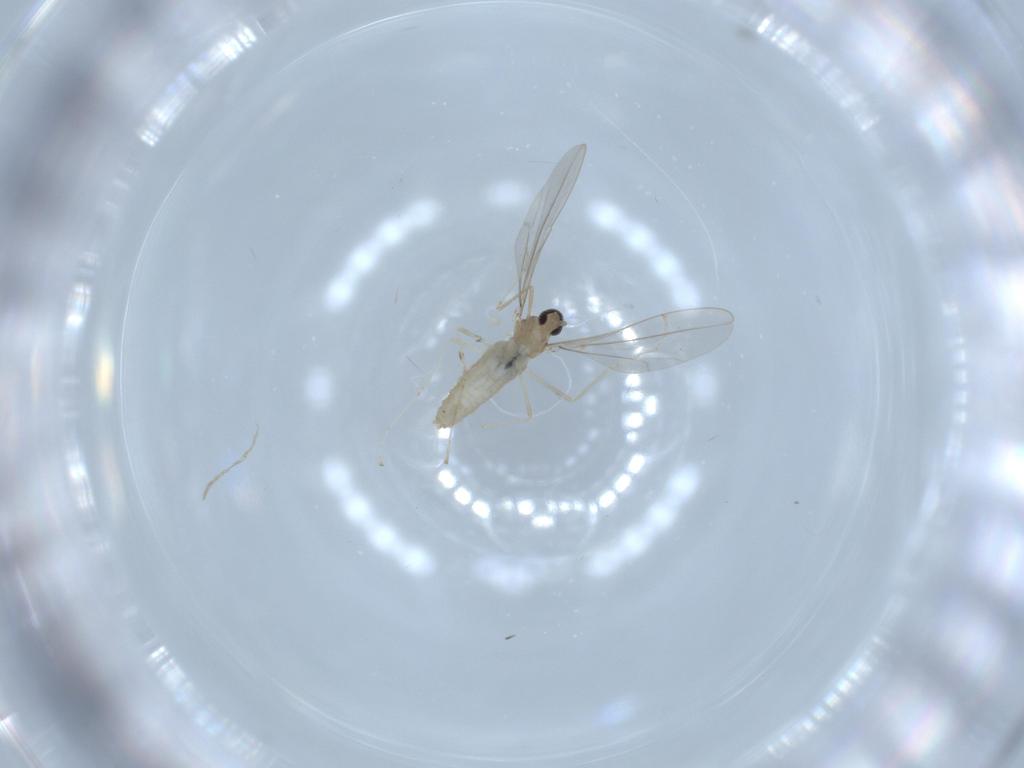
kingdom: Animalia
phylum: Arthropoda
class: Insecta
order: Diptera
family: Cecidomyiidae
